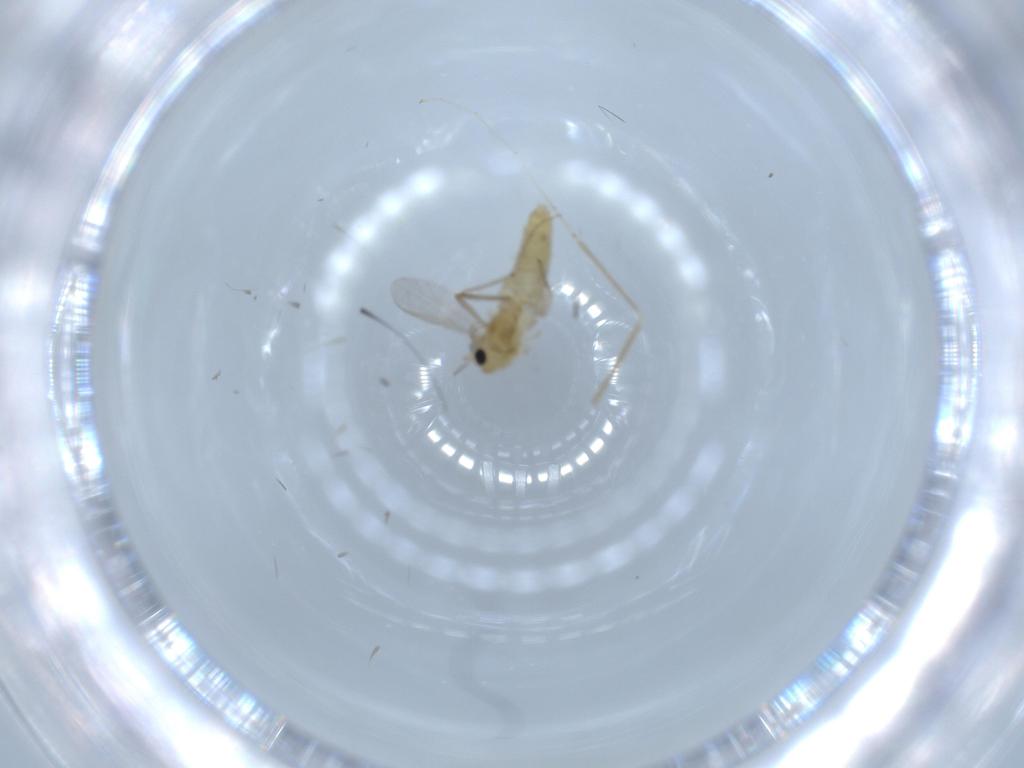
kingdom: Animalia
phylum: Arthropoda
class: Insecta
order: Diptera
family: Chironomidae
